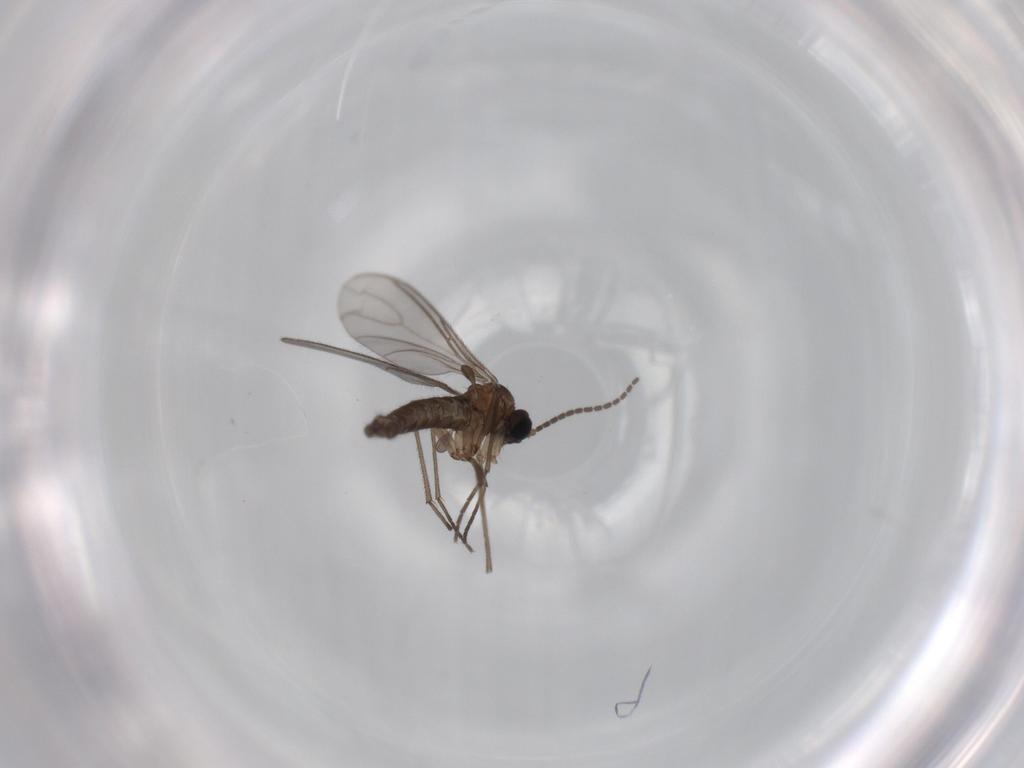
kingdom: Animalia
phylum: Arthropoda
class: Insecta
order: Diptera
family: Sciaridae
